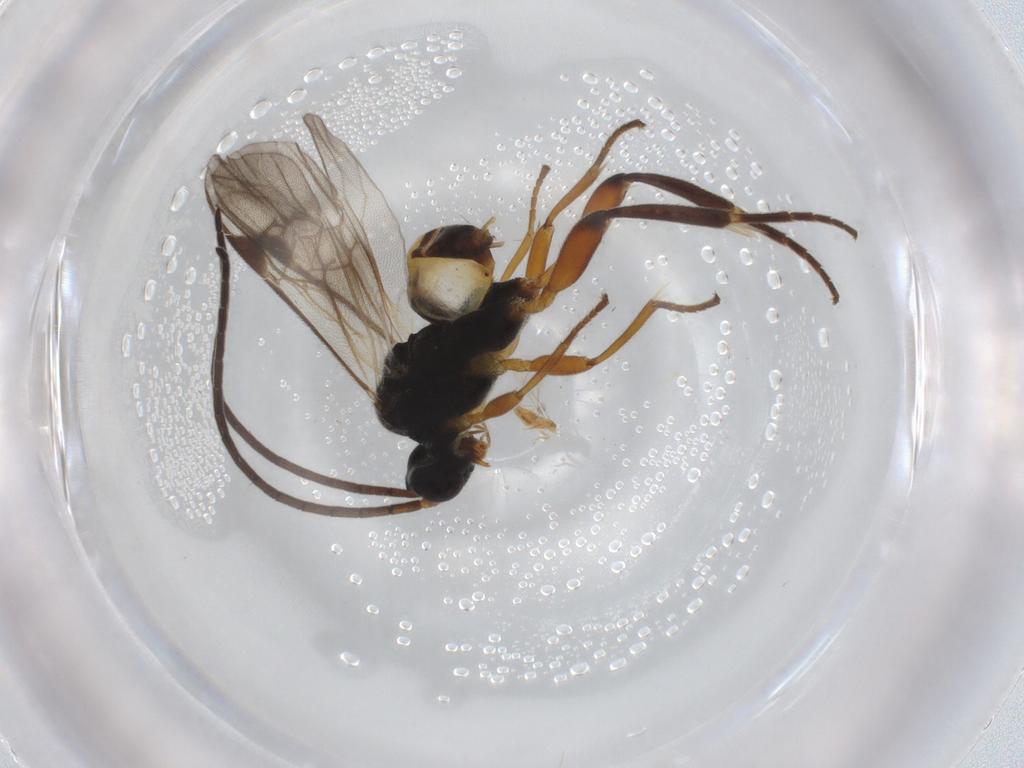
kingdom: Animalia
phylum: Arthropoda
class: Insecta
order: Hymenoptera
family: Braconidae
